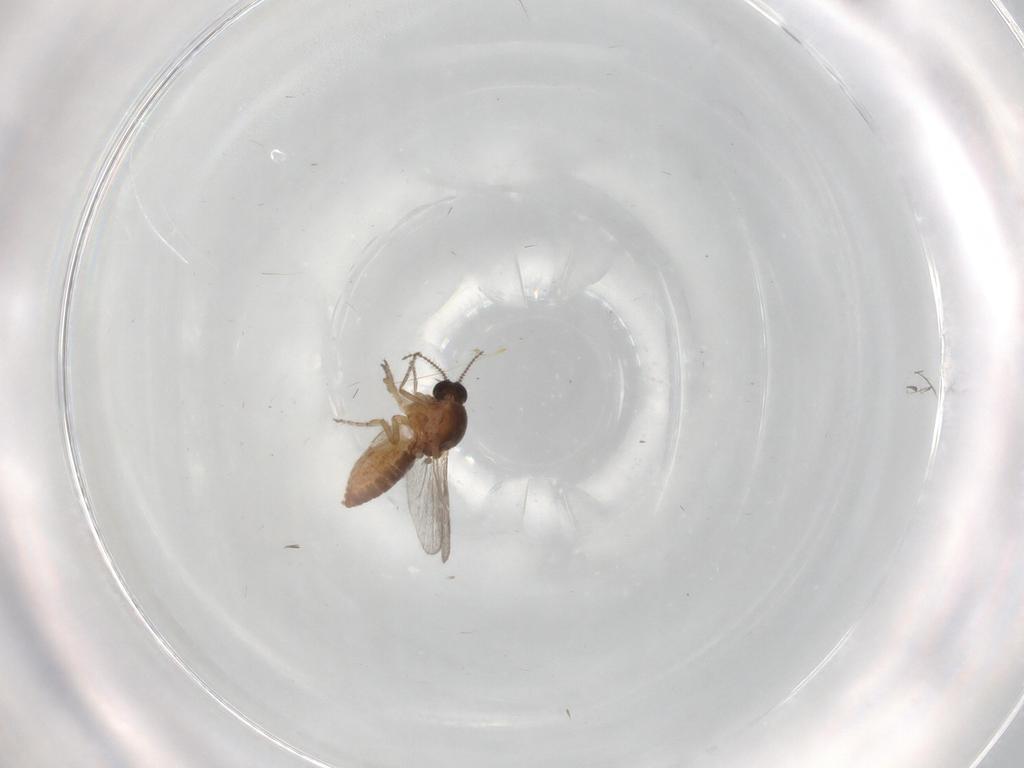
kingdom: Animalia
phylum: Arthropoda
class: Insecta
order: Diptera
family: Ceratopogonidae
